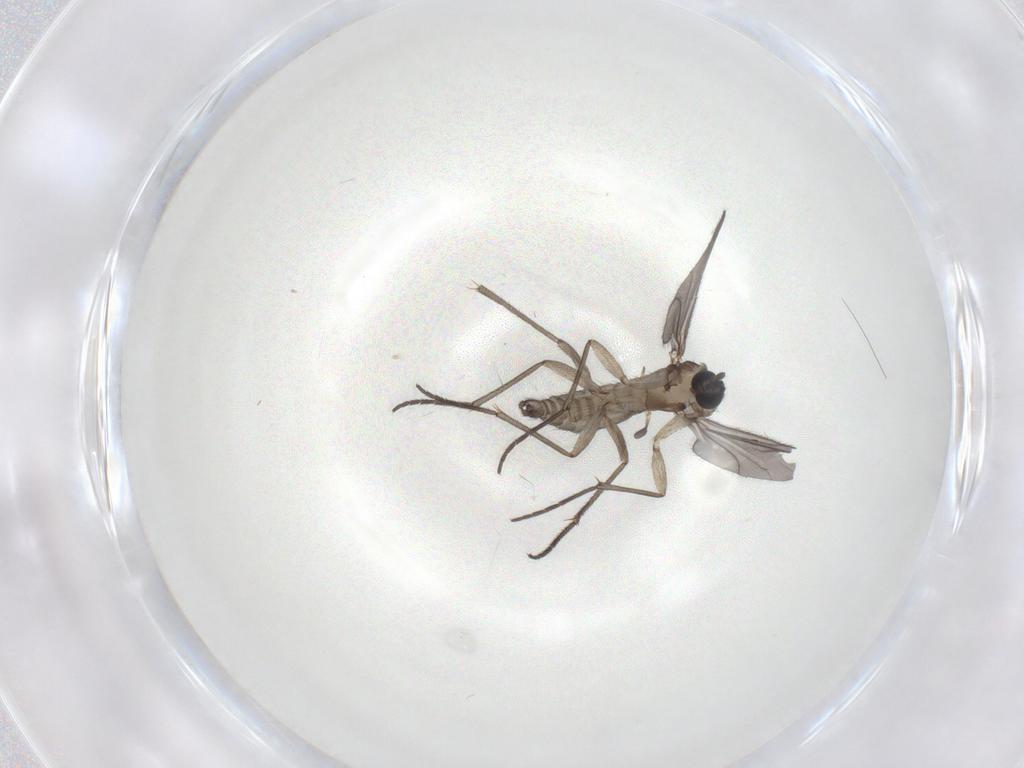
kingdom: Animalia
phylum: Arthropoda
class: Insecta
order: Diptera
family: Sciaridae
